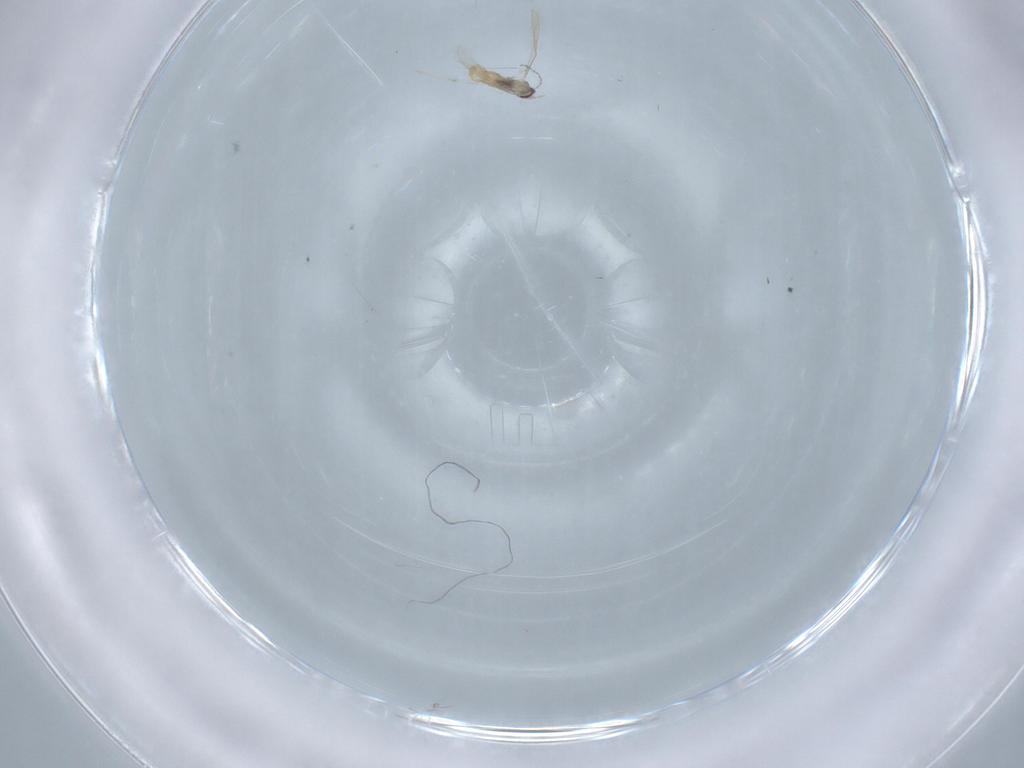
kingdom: Animalia
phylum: Arthropoda
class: Insecta
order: Diptera
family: Cecidomyiidae
